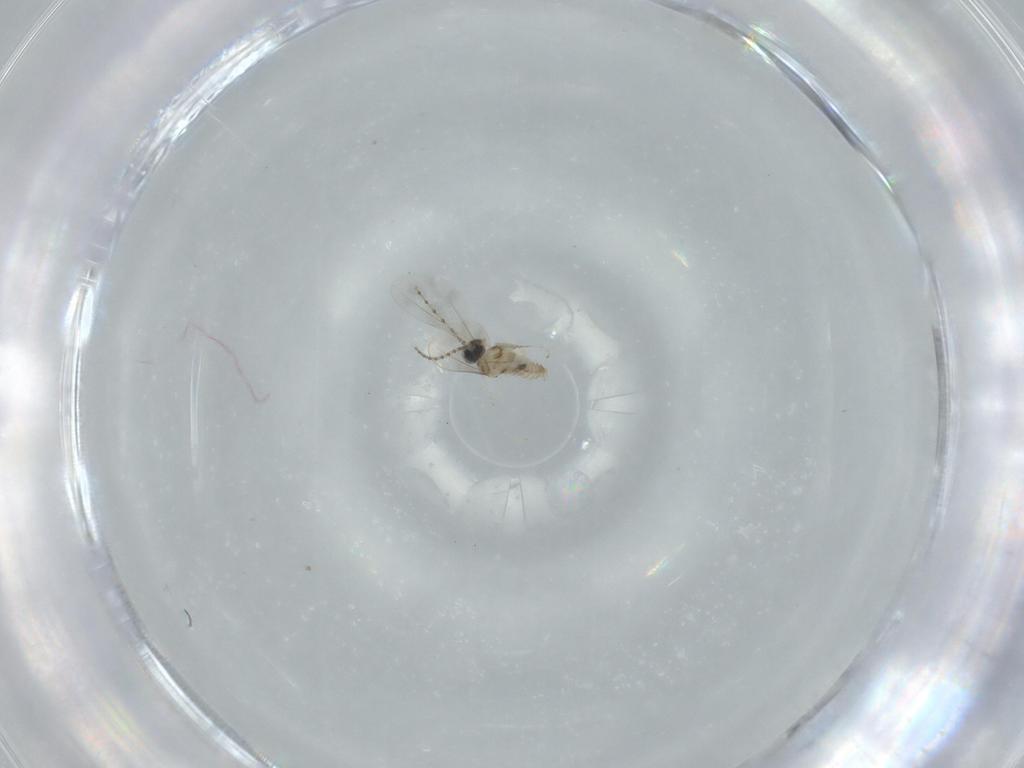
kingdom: Animalia
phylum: Arthropoda
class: Insecta
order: Diptera
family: Cecidomyiidae
